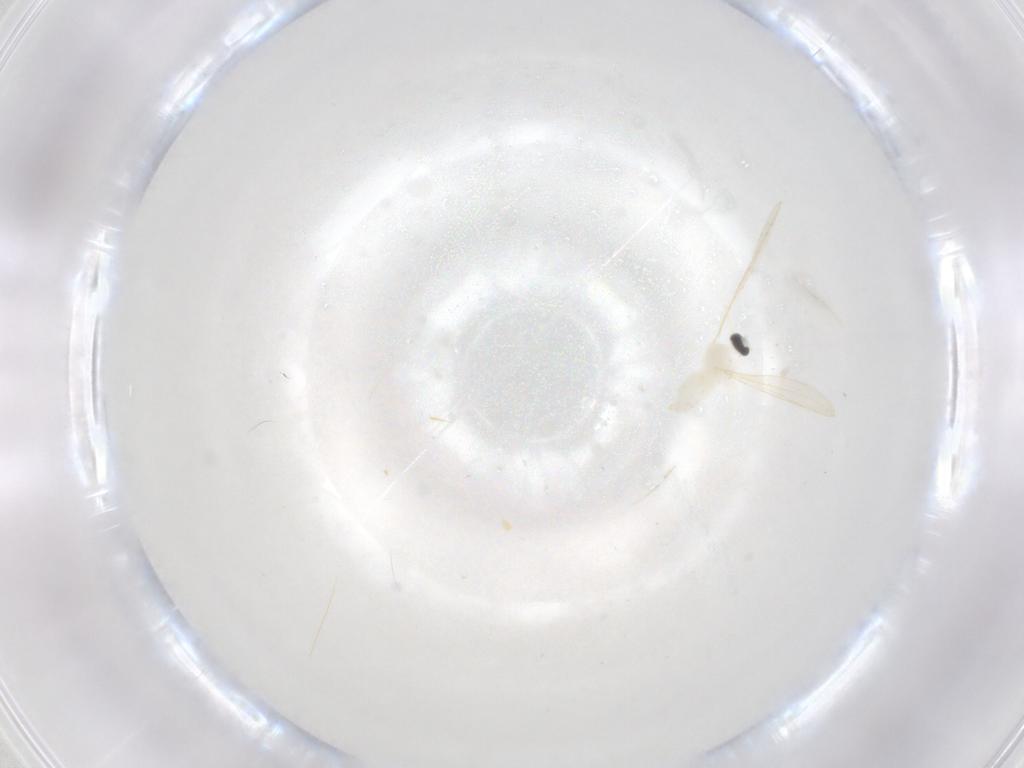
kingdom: Animalia
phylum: Arthropoda
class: Insecta
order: Diptera
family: Cecidomyiidae
